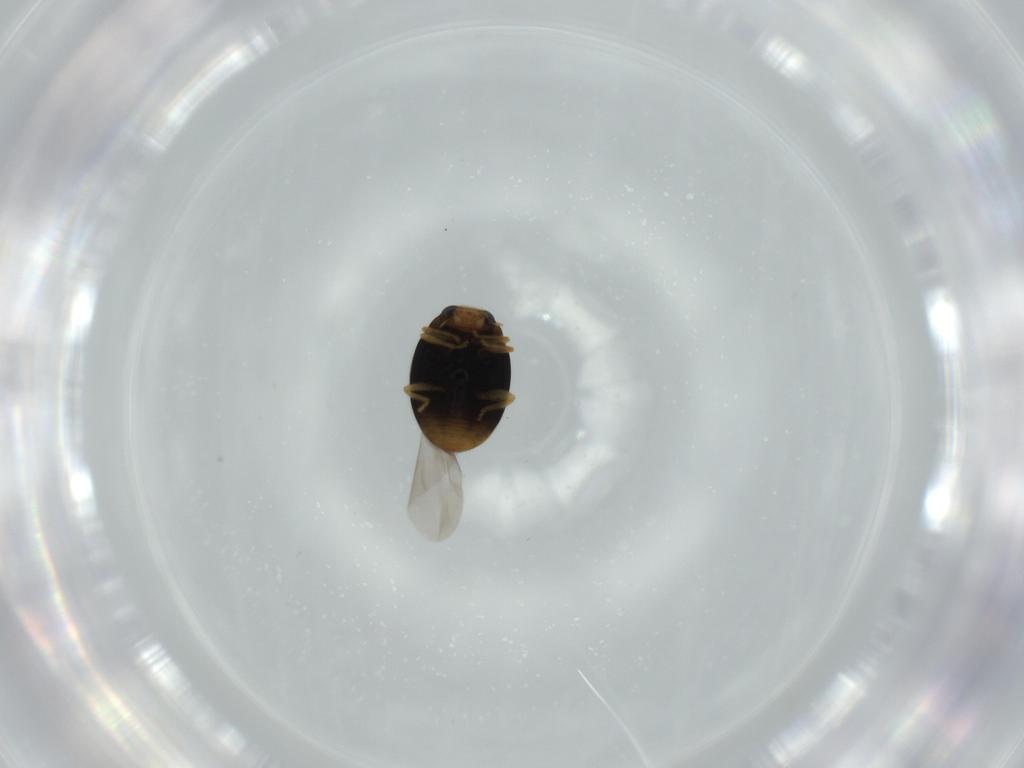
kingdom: Animalia
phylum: Arthropoda
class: Insecta
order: Coleoptera
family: Coccinellidae
